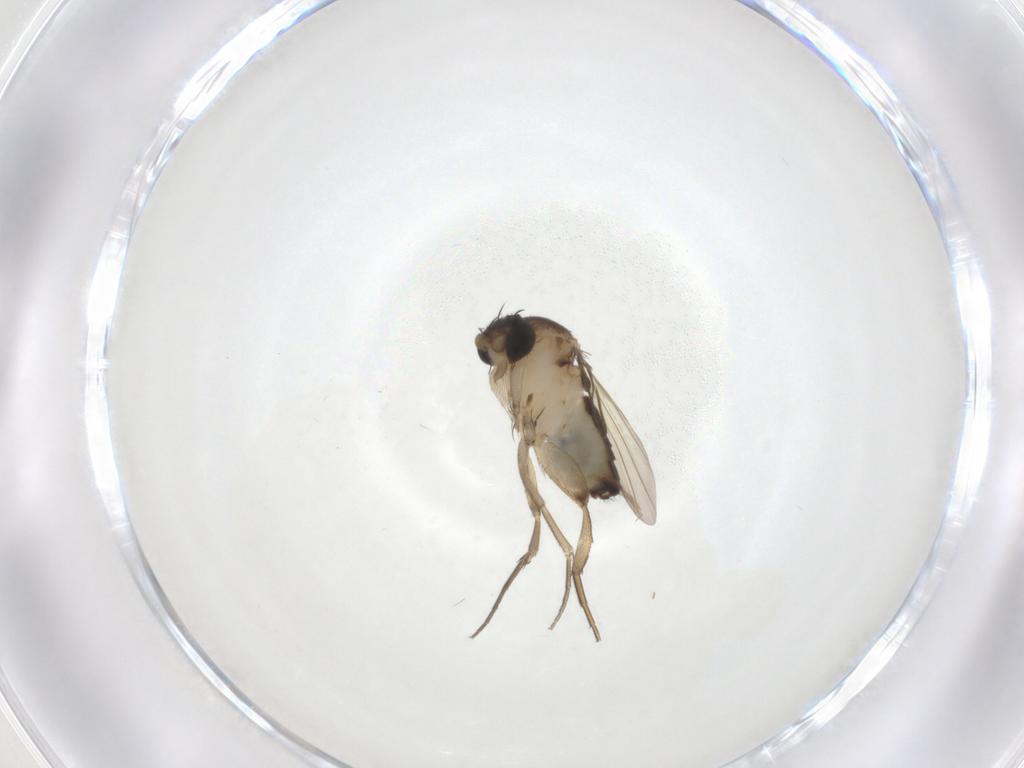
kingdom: Animalia
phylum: Arthropoda
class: Insecta
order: Diptera
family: Phoridae
